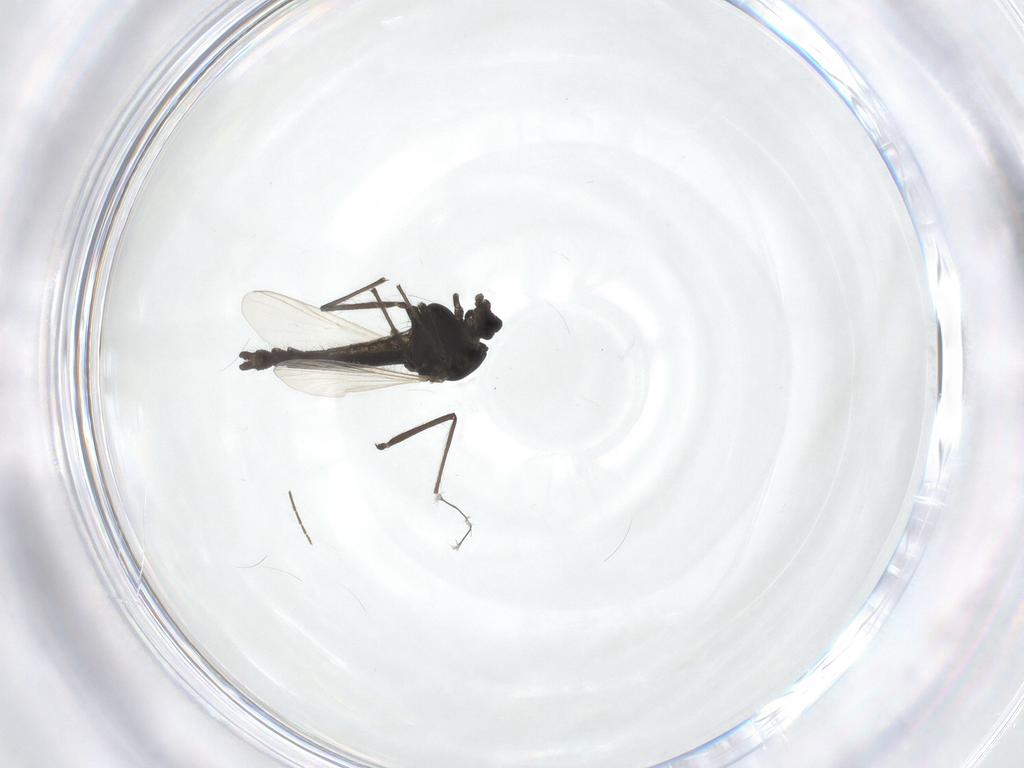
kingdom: Animalia
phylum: Arthropoda
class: Insecta
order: Diptera
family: Chironomidae
